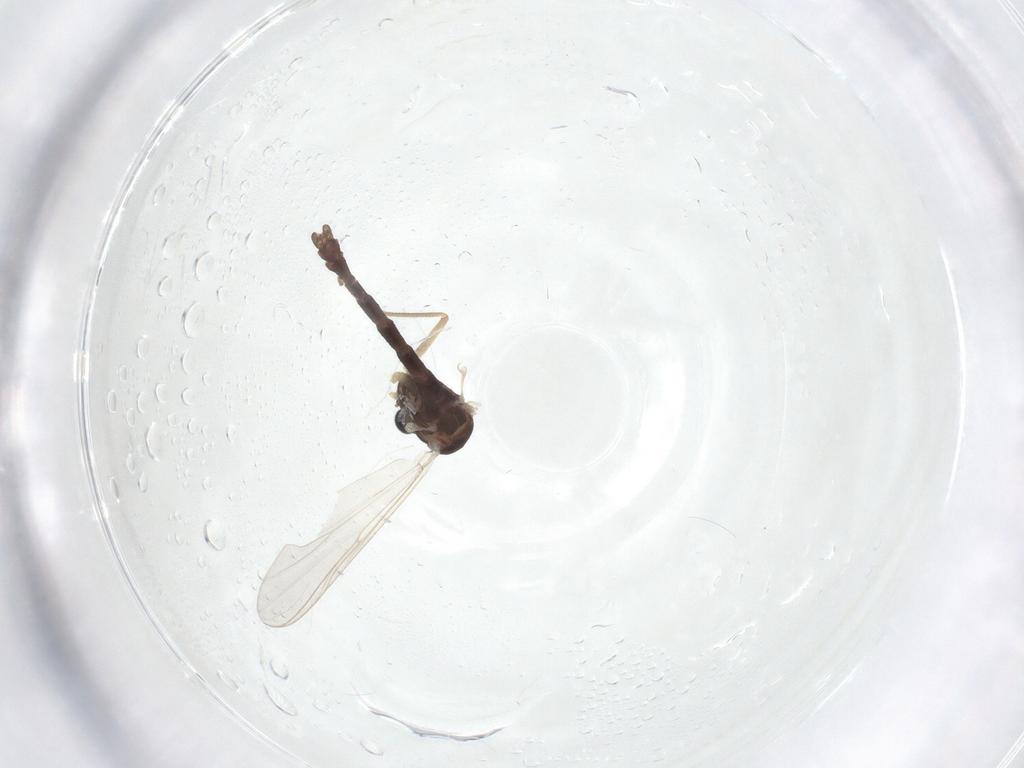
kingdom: Animalia
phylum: Arthropoda
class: Insecta
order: Diptera
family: Chironomidae
